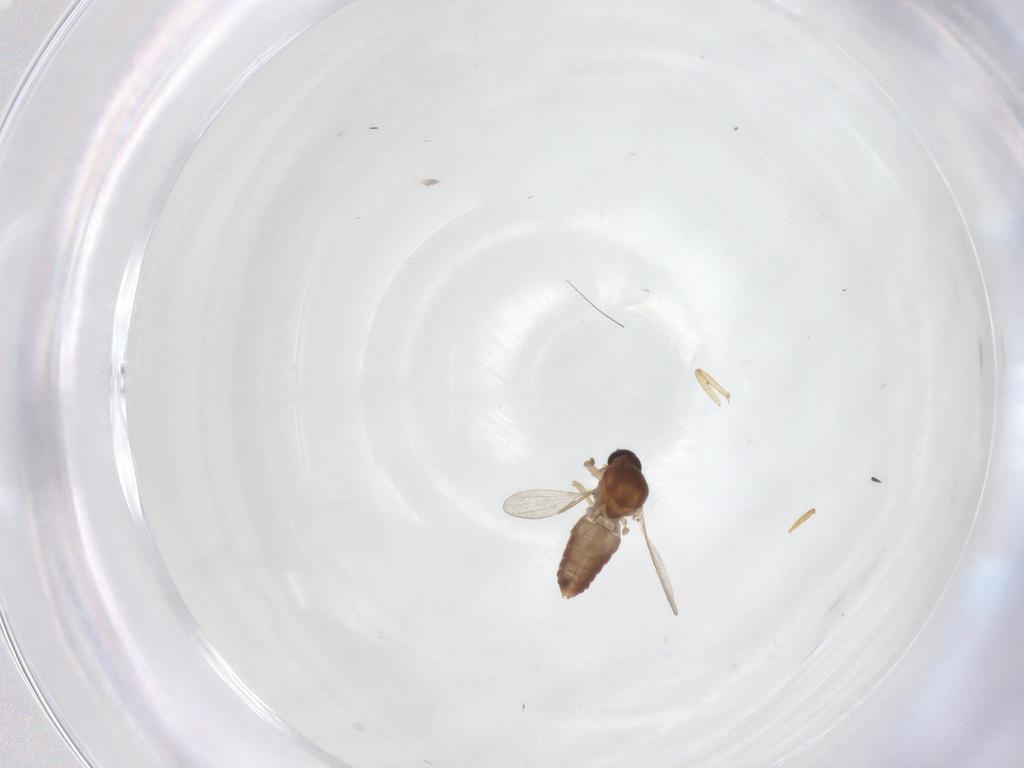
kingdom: Animalia
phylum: Arthropoda
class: Insecta
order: Diptera
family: Ceratopogonidae
